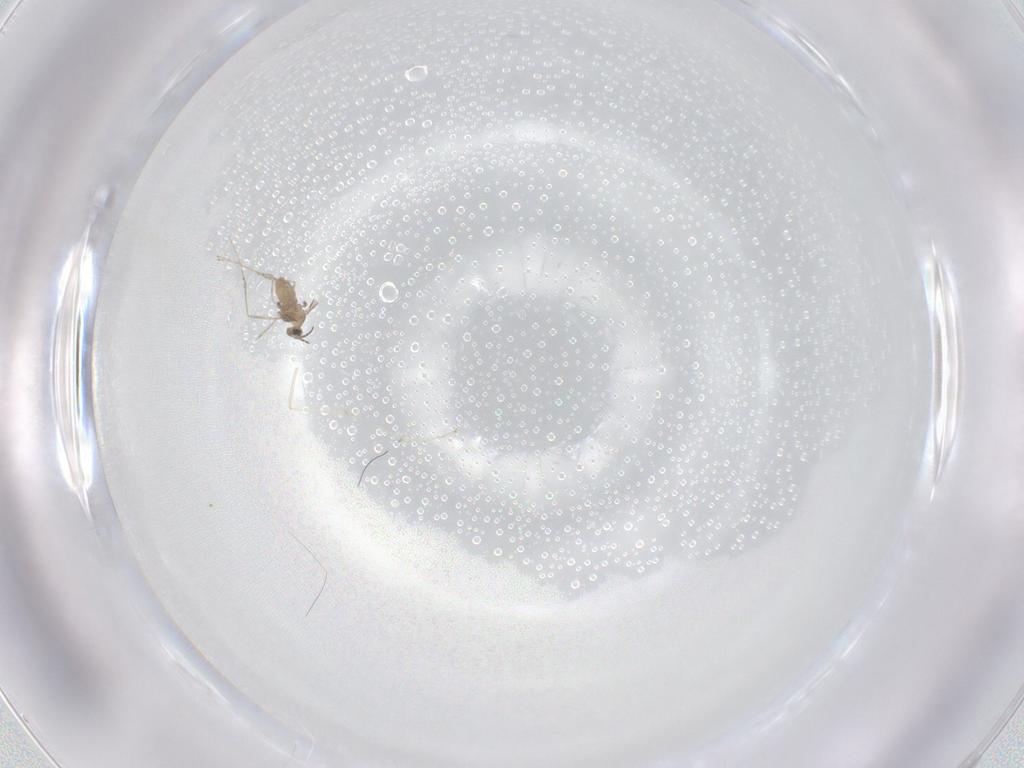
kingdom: Animalia
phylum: Arthropoda
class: Insecta
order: Diptera
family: Cecidomyiidae
